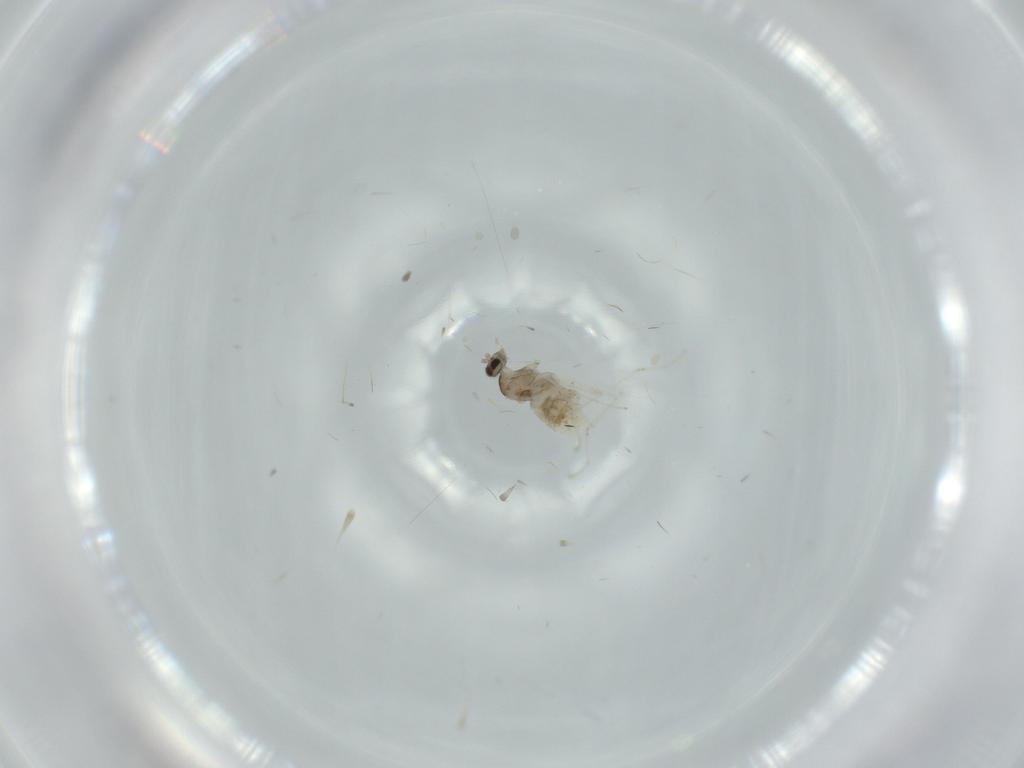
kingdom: Animalia
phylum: Arthropoda
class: Insecta
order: Diptera
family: Cecidomyiidae
